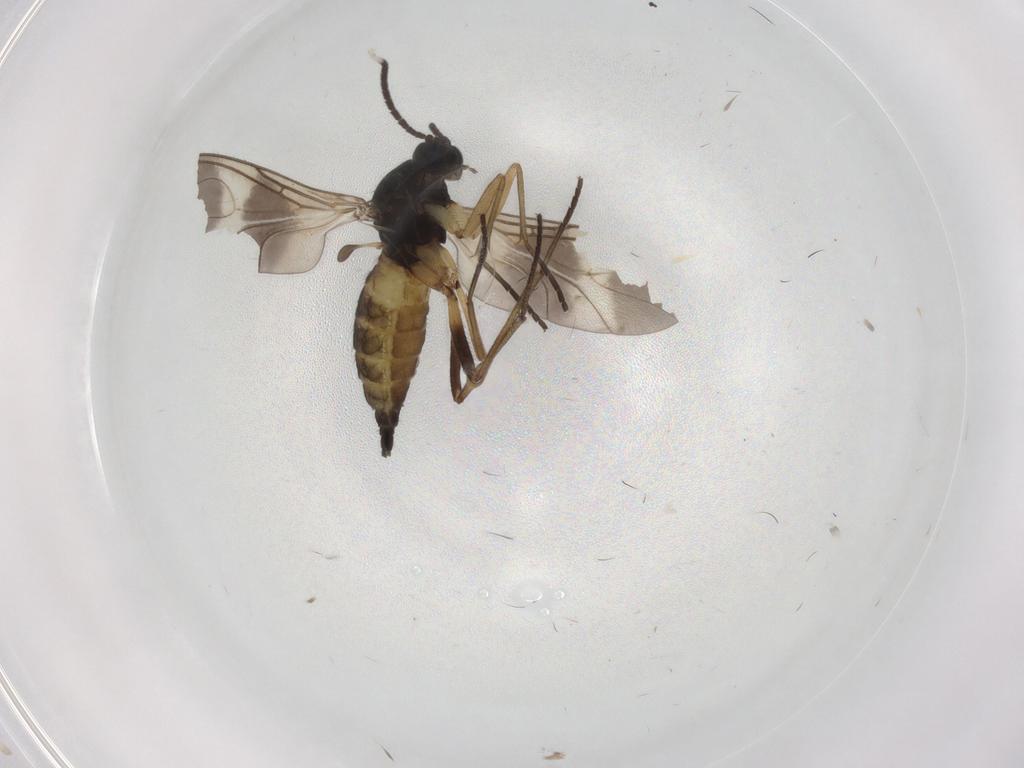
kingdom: Animalia
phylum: Arthropoda
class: Insecta
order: Diptera
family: Sciaridae
